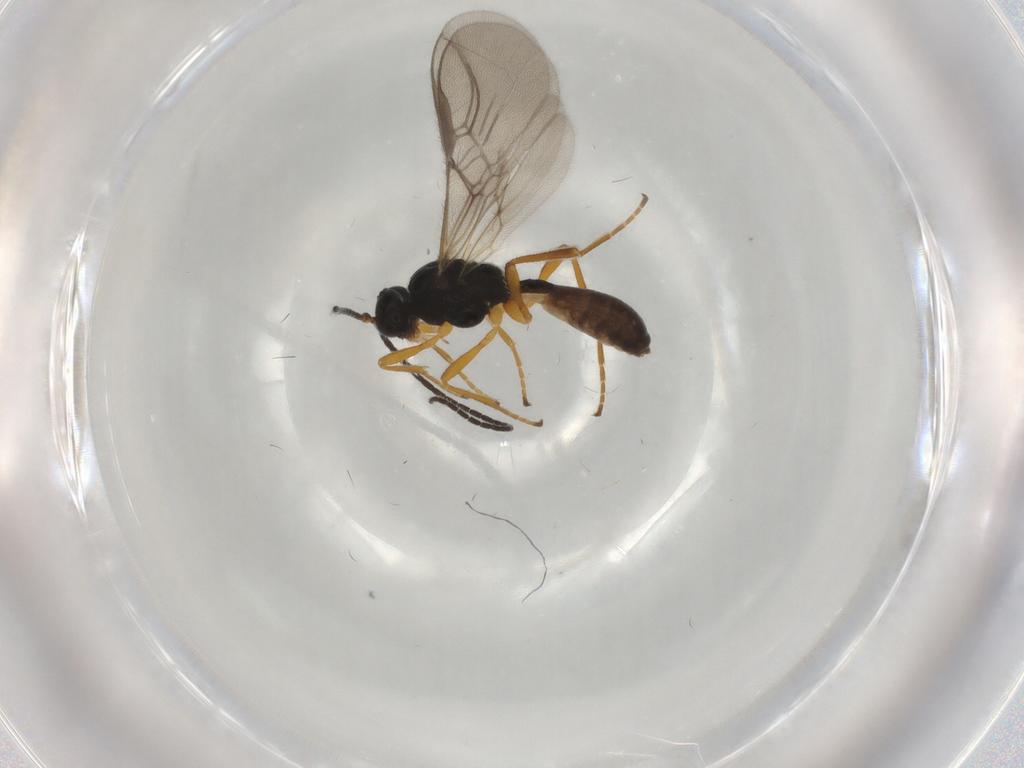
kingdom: Animalia
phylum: Arthropoda
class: Insecta
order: Hymenoptera
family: Braconidae
